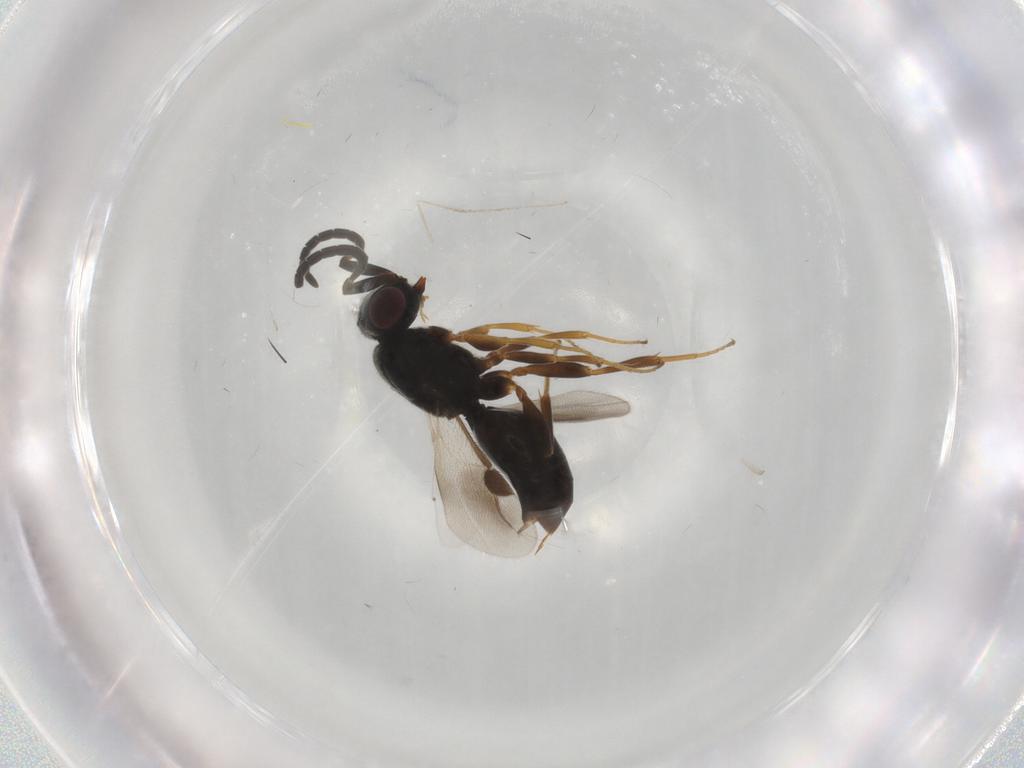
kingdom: Animalia
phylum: Arthropoda
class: Insecta
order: Hymenoptera
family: Megaspilidae
